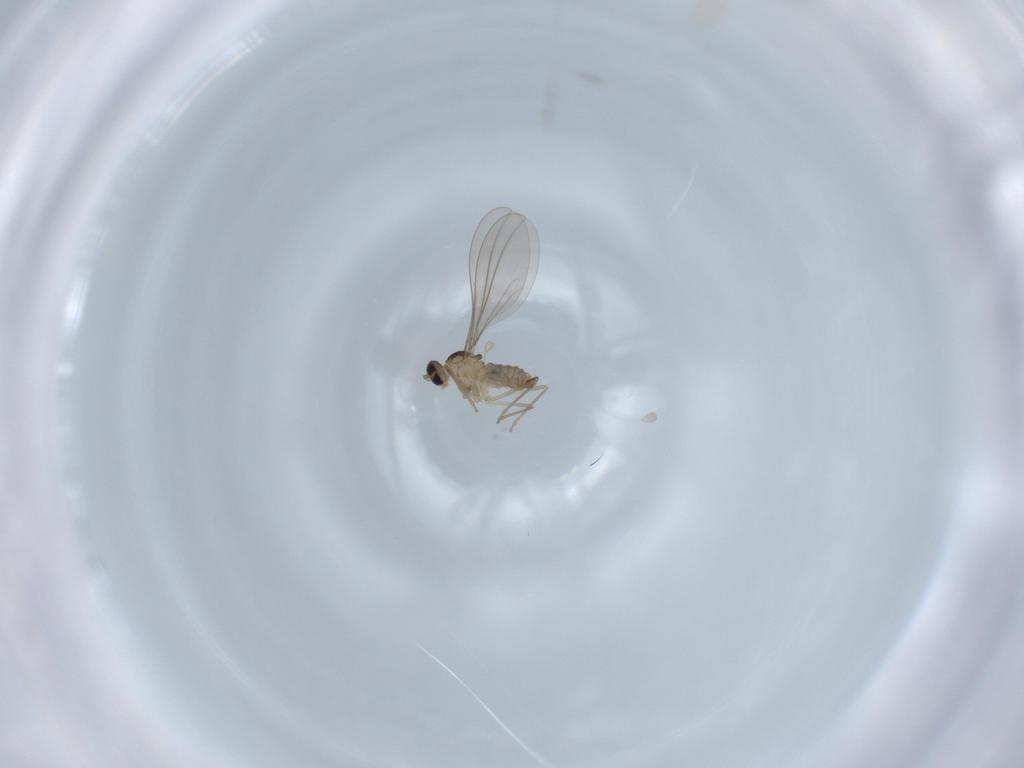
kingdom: Animalia
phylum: Arthropoda
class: Insecta
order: Diptera
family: Cecidomyiidae
